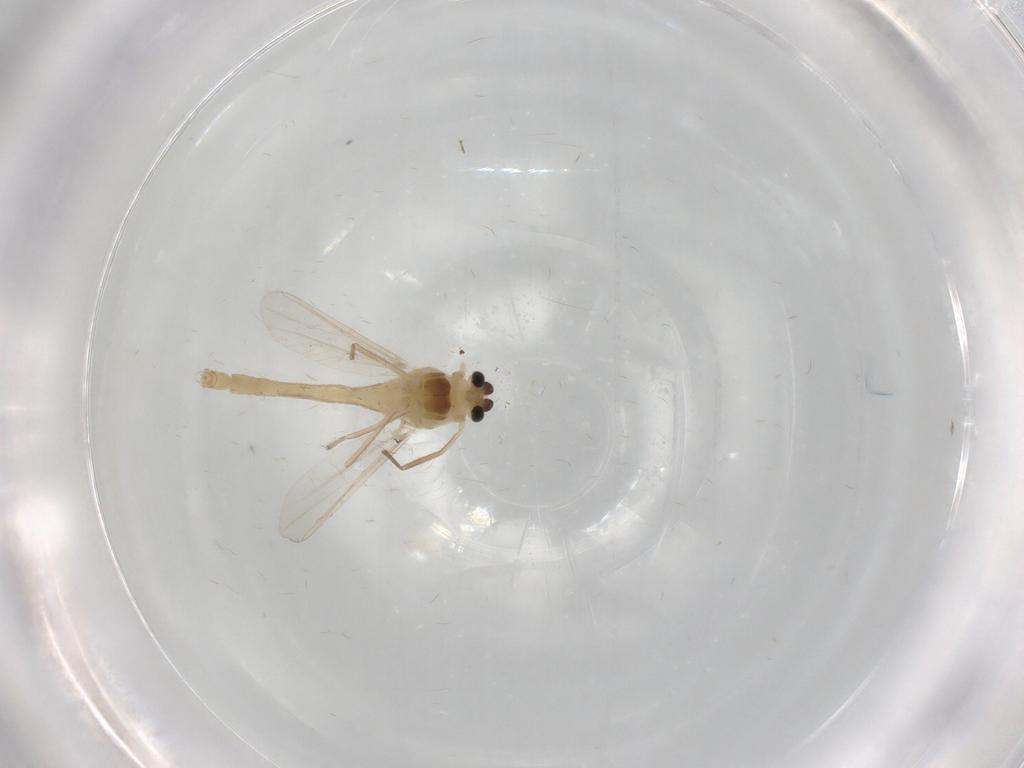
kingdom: Animalia
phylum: Arthropoda
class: Insecta
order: Diptera
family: Chironomidae
